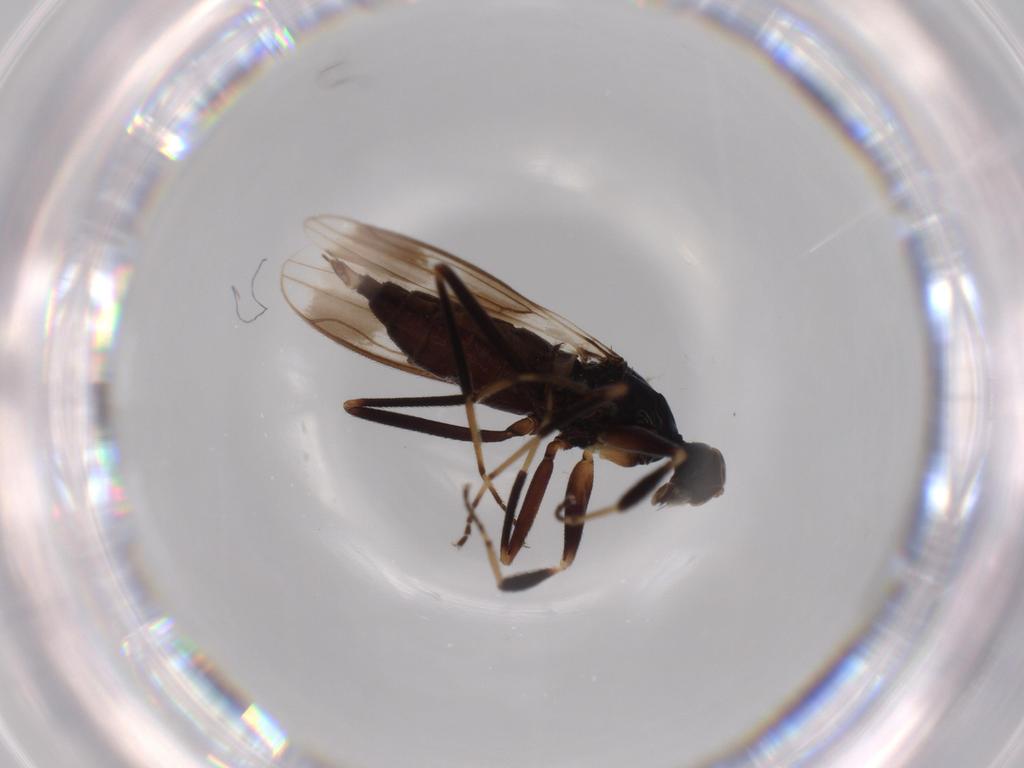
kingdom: Animalia
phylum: Arthropoda
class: Insecta
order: Diptera
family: Hybotidae
